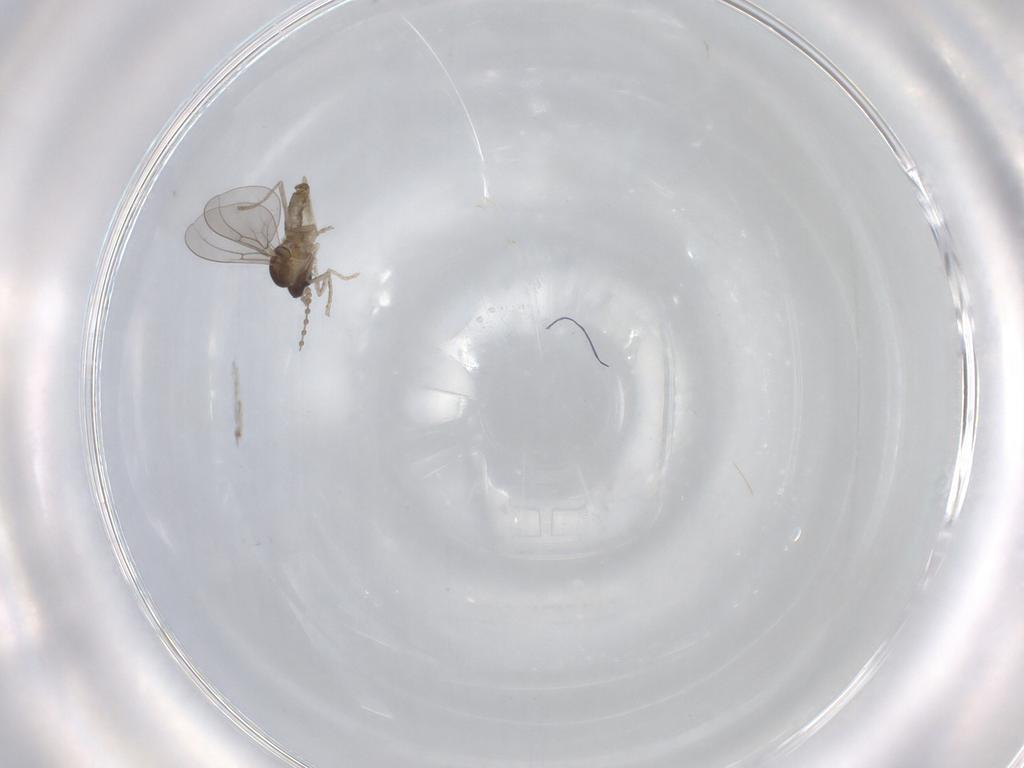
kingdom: Animalia
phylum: Arthropoda
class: Insecta
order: Diptera
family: Cecidomyiidae
